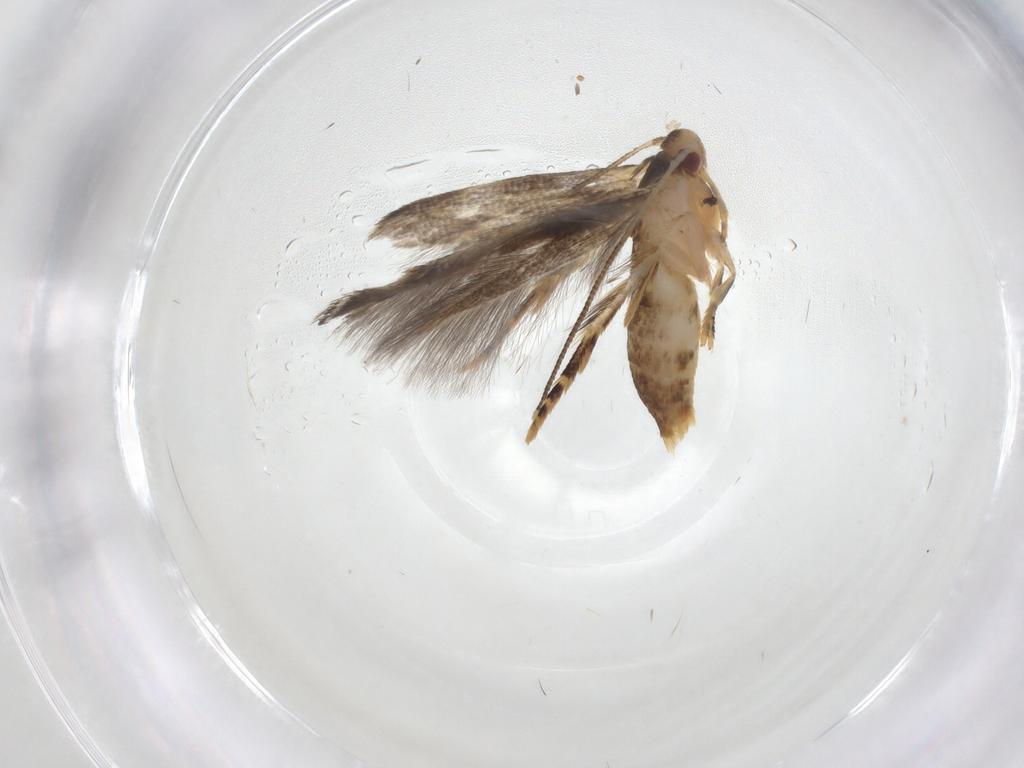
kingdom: Animalia
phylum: Arthropoda
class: Insecta
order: Lepidoptera
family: Momphidae
